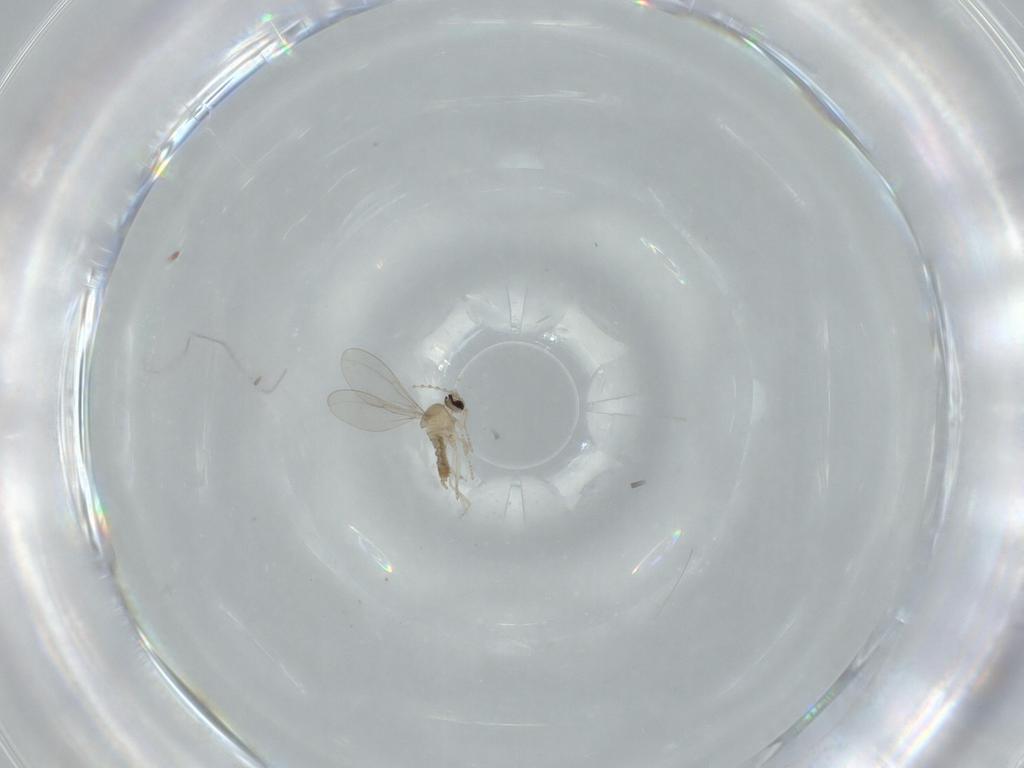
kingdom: Animalia
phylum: Arthropoda
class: Insecta
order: Diptera
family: Cecidomyiidae
